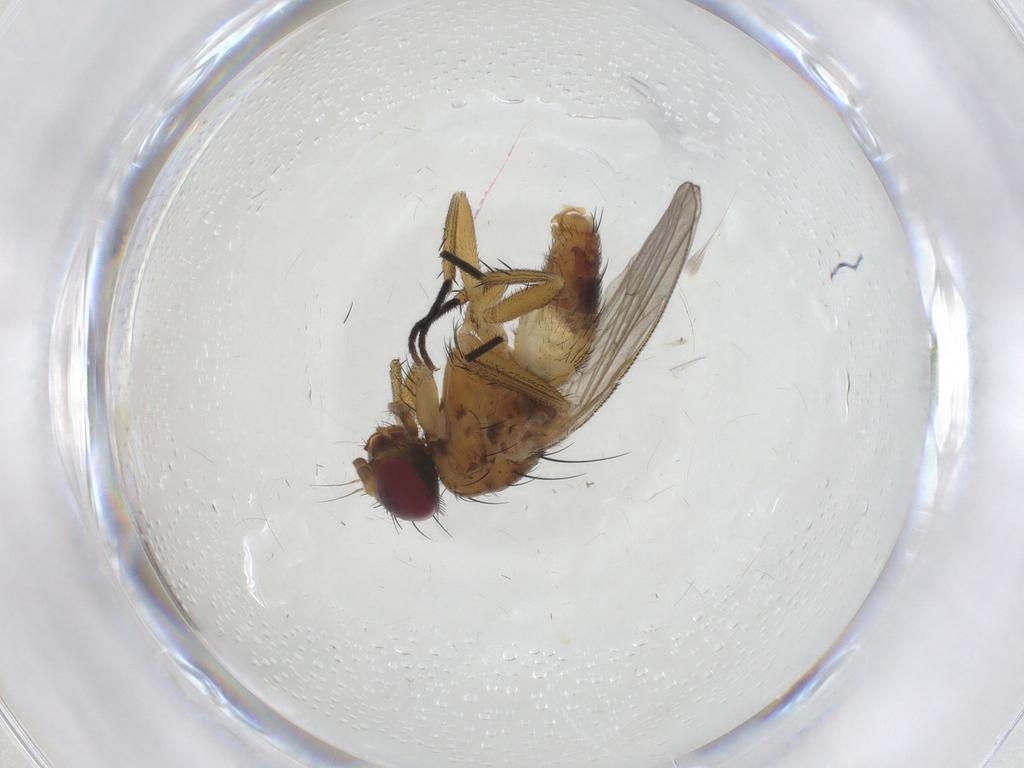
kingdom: Animalia
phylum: Arthropoda
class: Insecta
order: Diptera
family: Fanniidae
